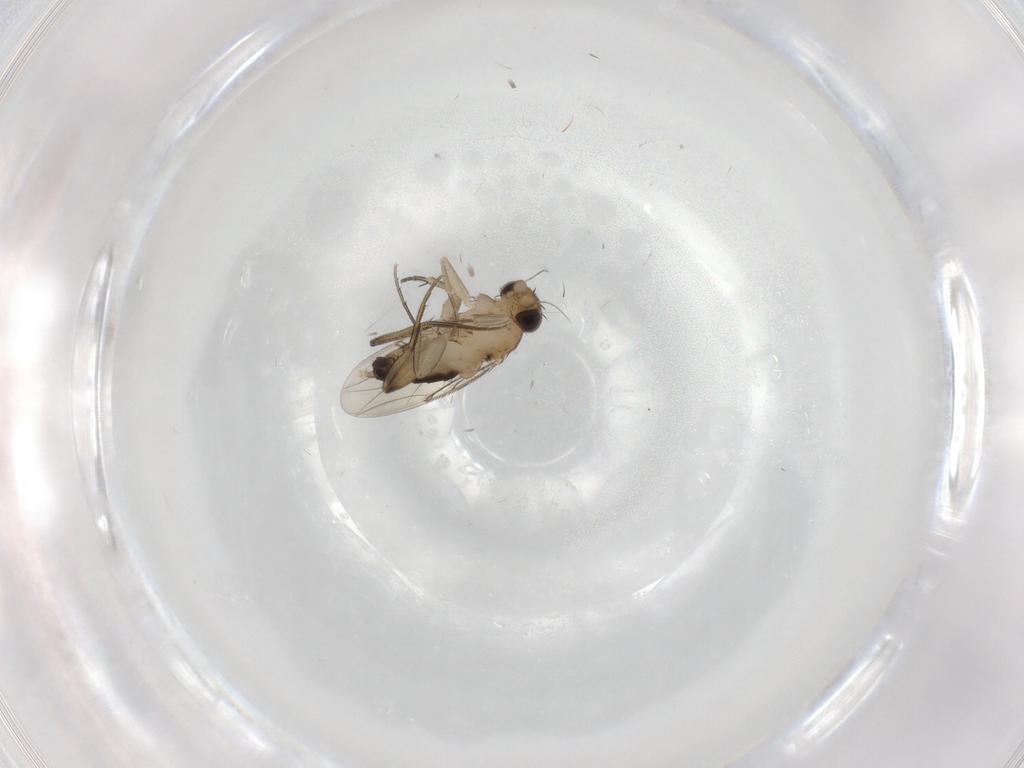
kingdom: Animalia
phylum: Arthropoda
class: Insecta
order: Diptera
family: Phoridae
